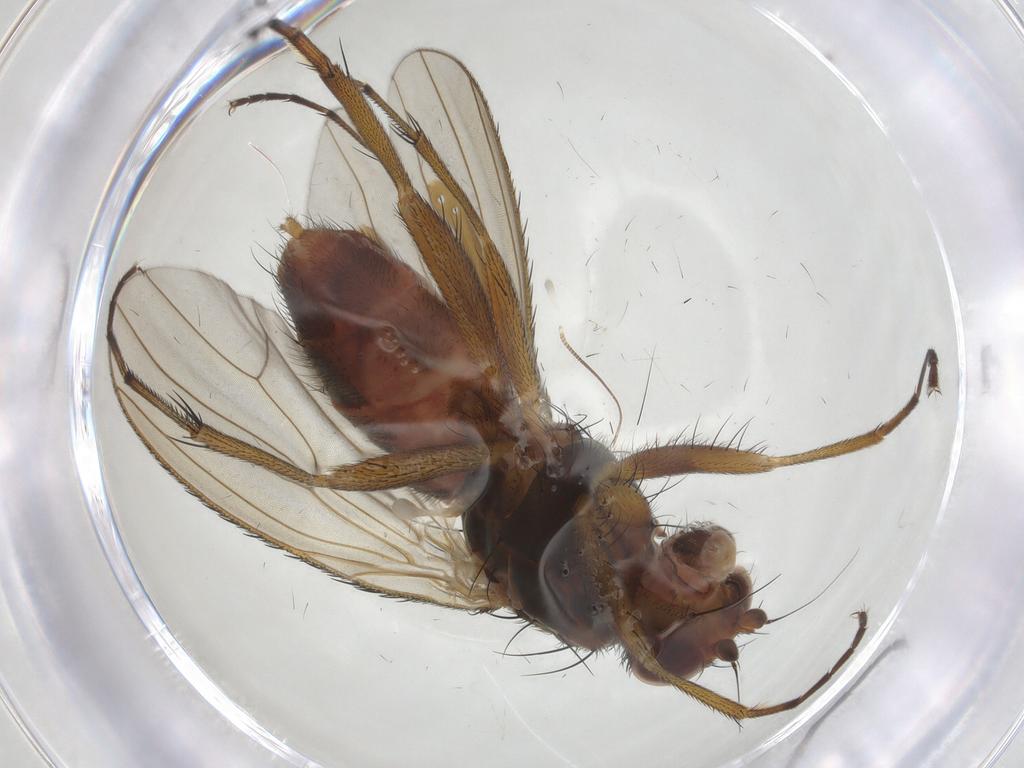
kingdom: Animalia
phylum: Arthropoda
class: Insecta
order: Diptera
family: Heleomyzidae
